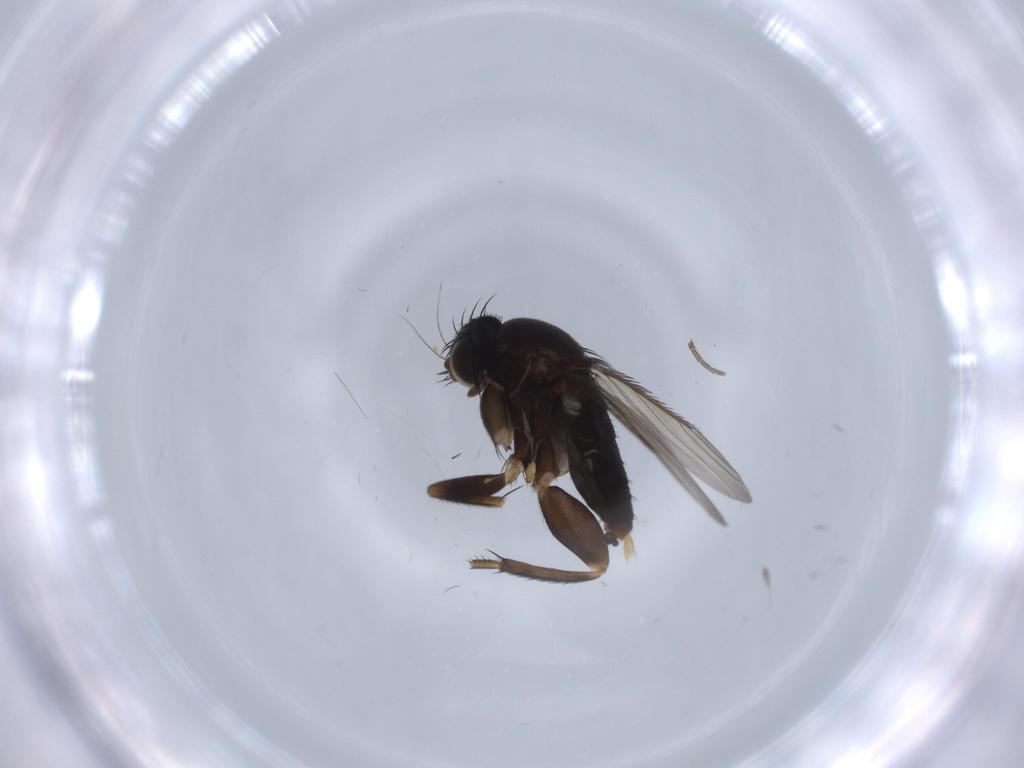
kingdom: Animalia
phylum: Arthropoda
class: Insecta
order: Diptera
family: Phoridae
